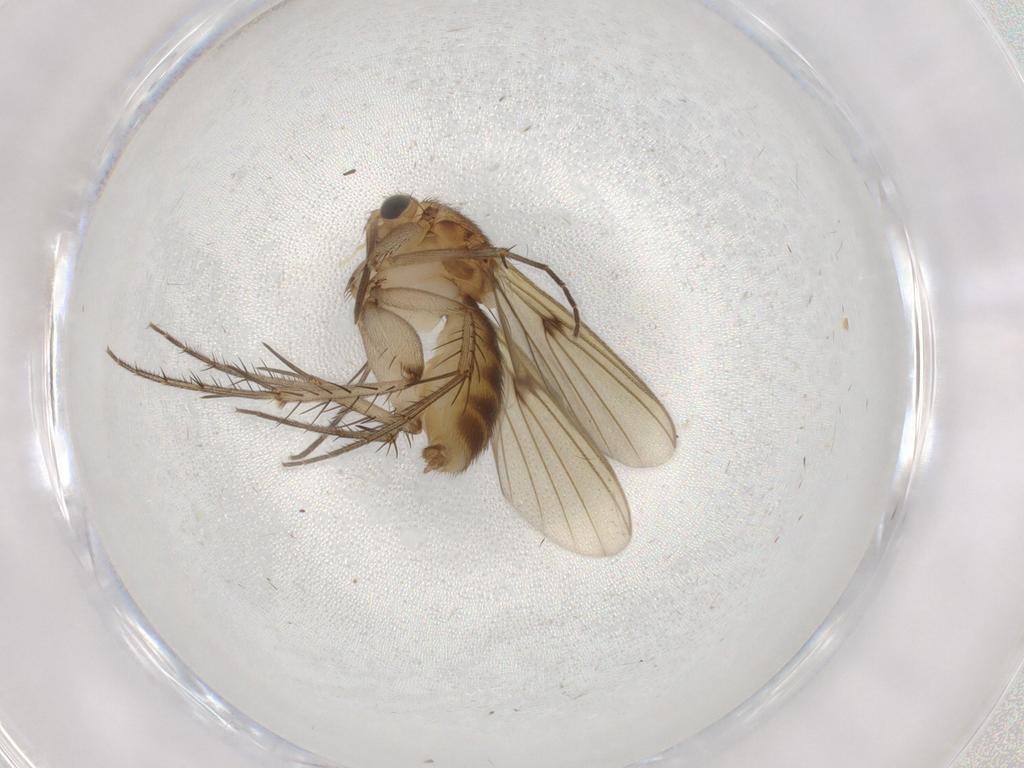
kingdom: Animalia
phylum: Arthropoda
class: Insecta
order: Diptera
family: Mycetophilidae
